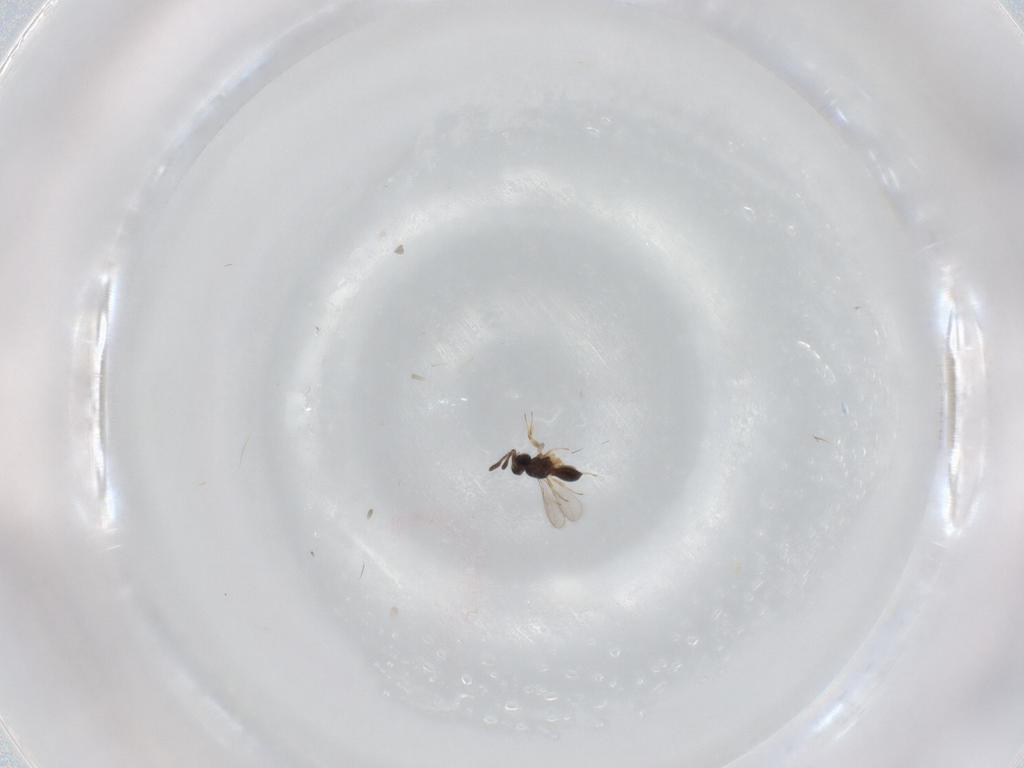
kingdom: Animalia
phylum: Arthropoda
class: Insecta
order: Hymenoptera
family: Scelionidae
